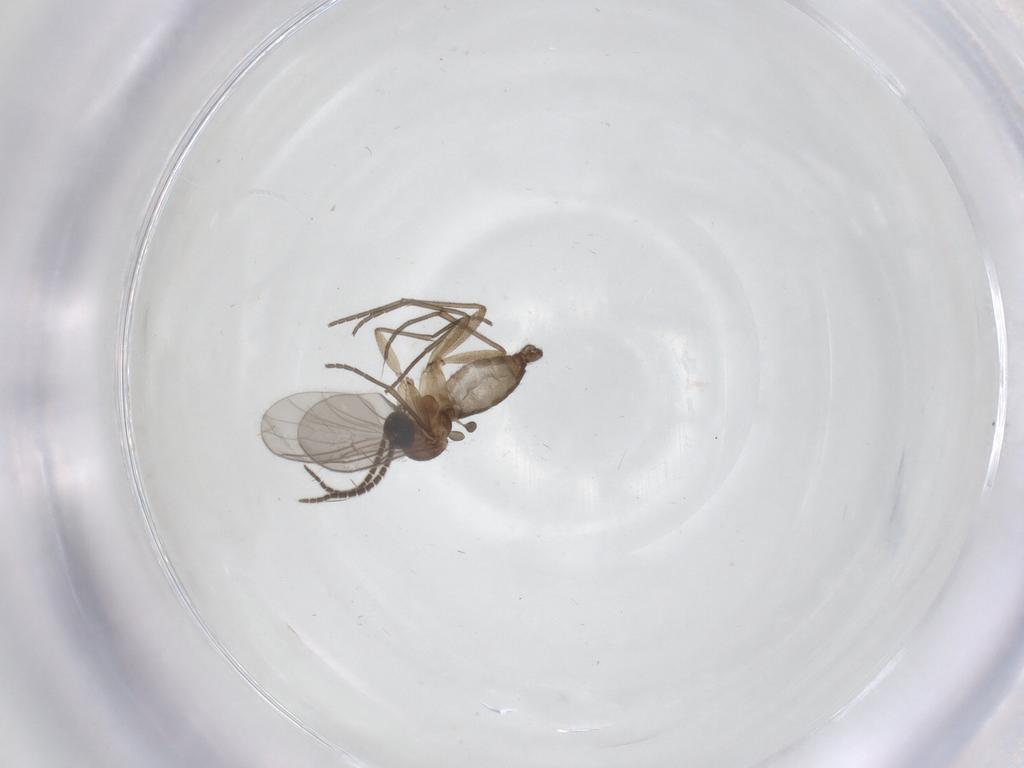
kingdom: Animalia
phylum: Arthropoda
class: Insecta
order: Diptera
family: Sciaridae
